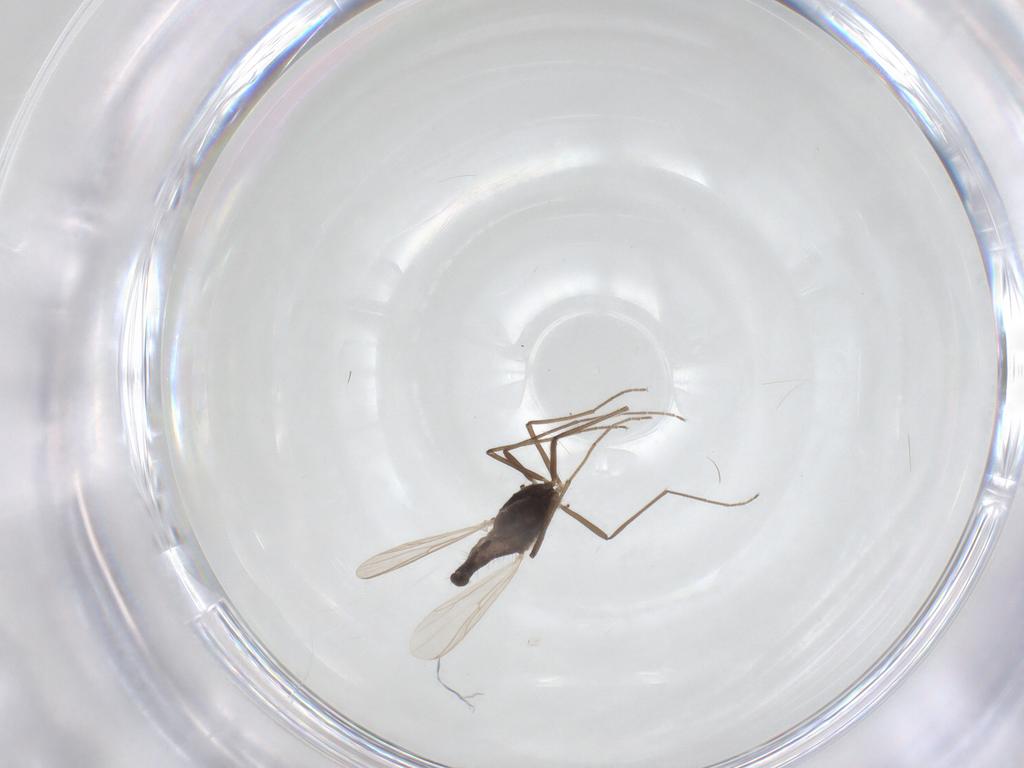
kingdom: Animalia
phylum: Arthropoda
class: Insecta
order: Diptera
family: Chironomidae
